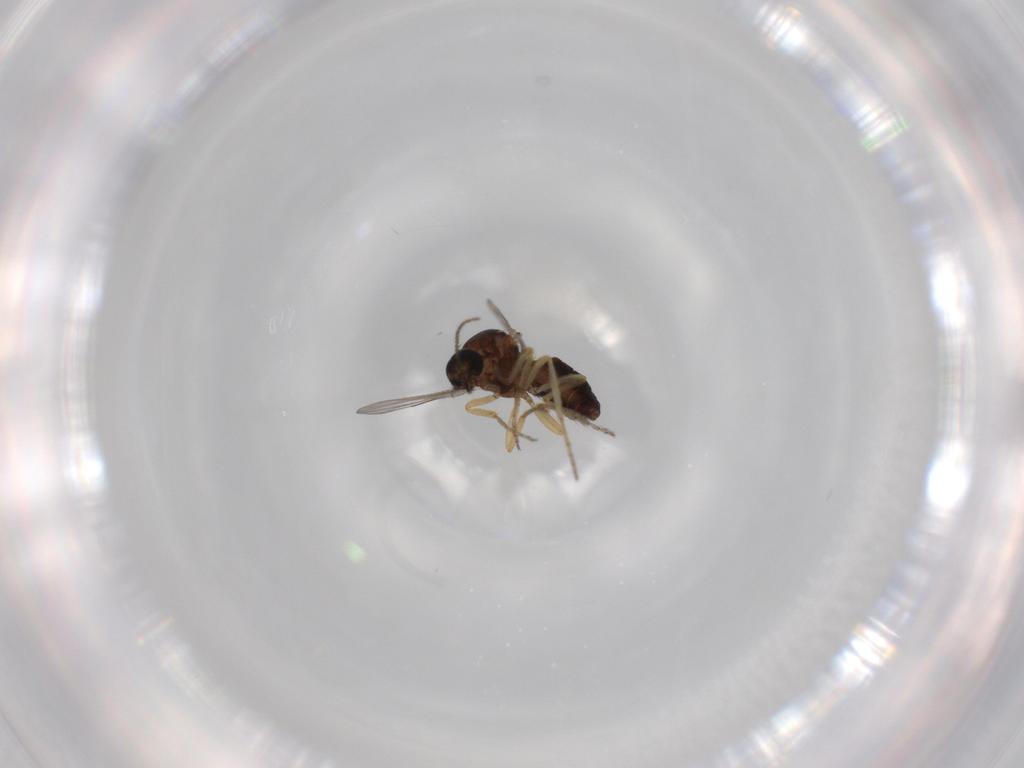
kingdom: Animalia
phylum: Arthropoda
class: Insecta
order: Diptera
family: Ceratopogonidae
